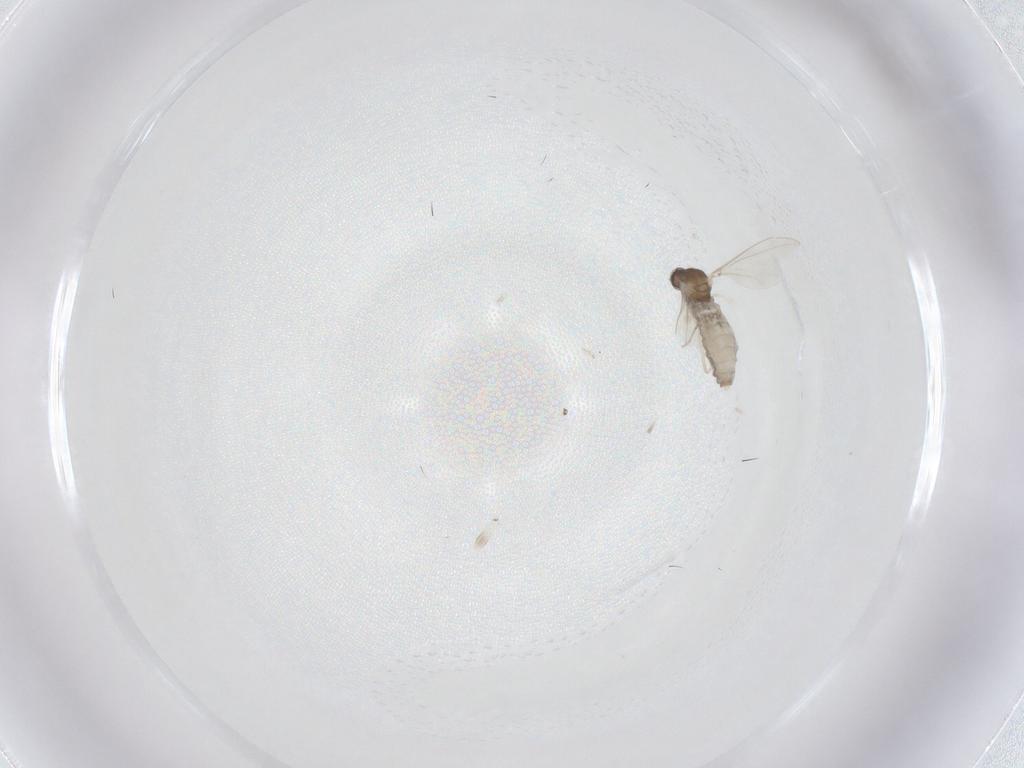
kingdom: Animalia
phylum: Arthropoda
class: Insecta
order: Diptera
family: Cecidomyiidae
